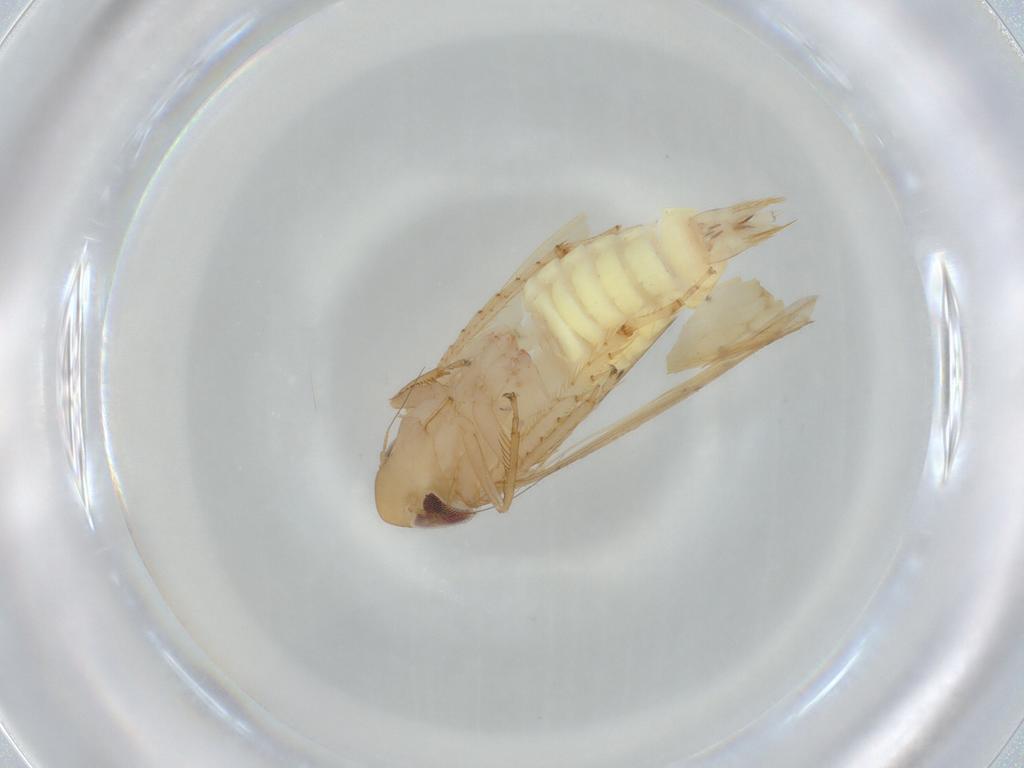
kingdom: Animalia
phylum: Arthropoda
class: Insecta
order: Hemiptera
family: Cicadellidae
